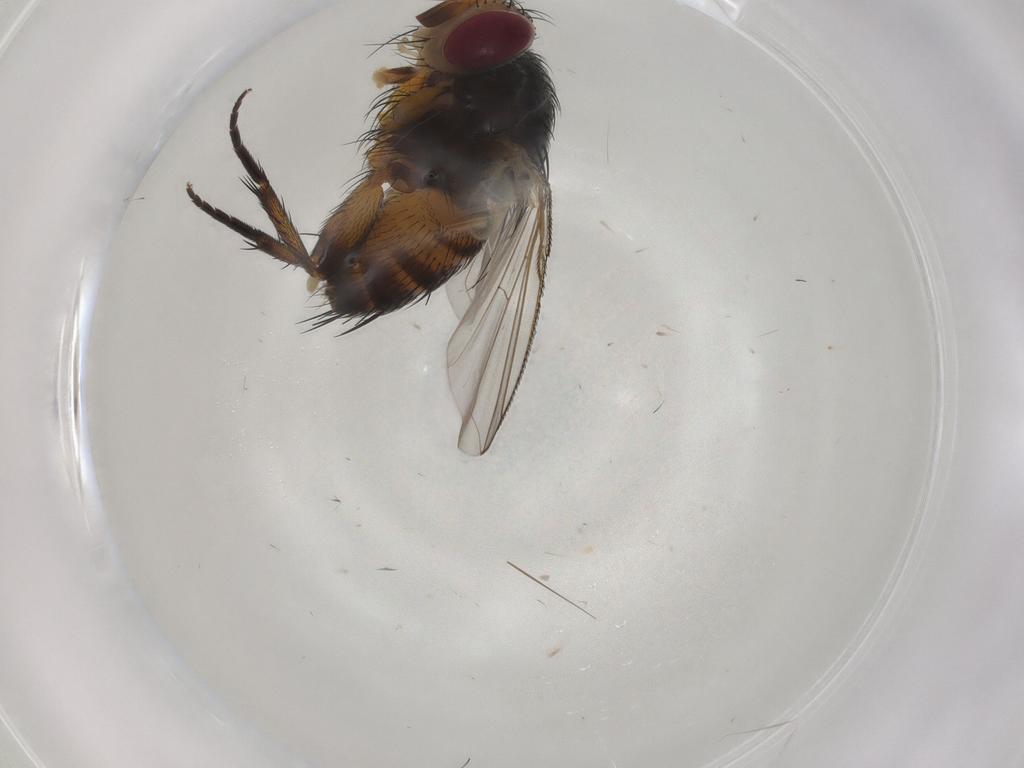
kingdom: Animalia
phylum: Arthropoda
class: Insecta
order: Diptera
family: Tachinidae
